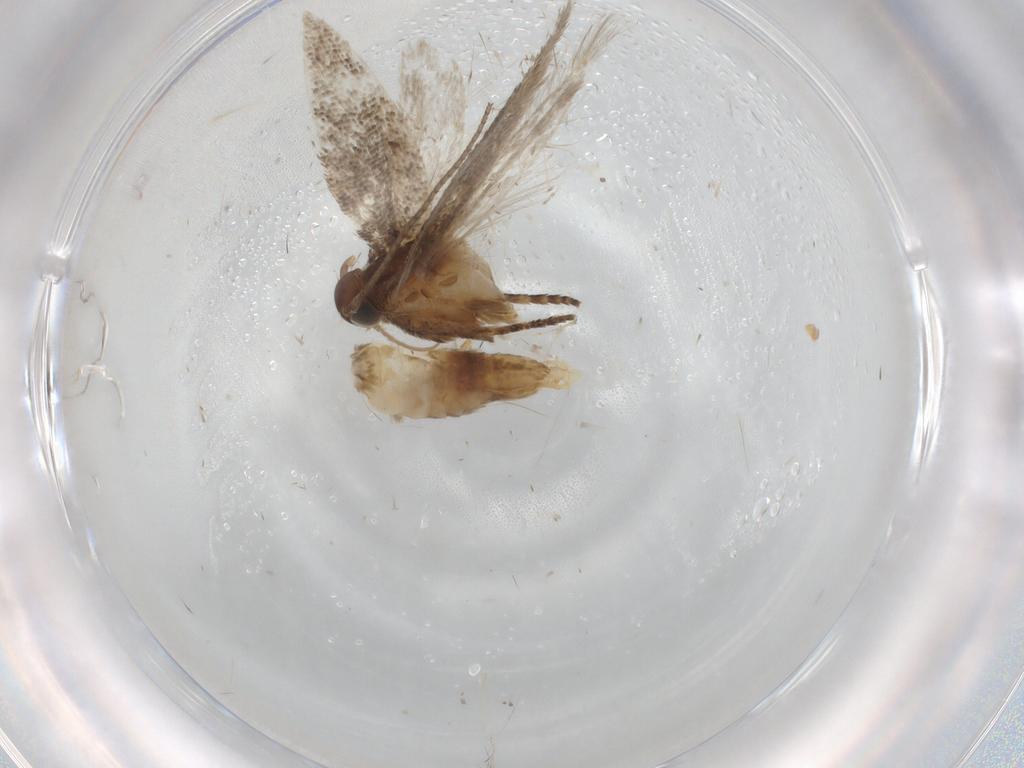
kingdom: Animalia
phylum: Arthropoda
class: Insecta
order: Lepidoptera
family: Gelechiidae
